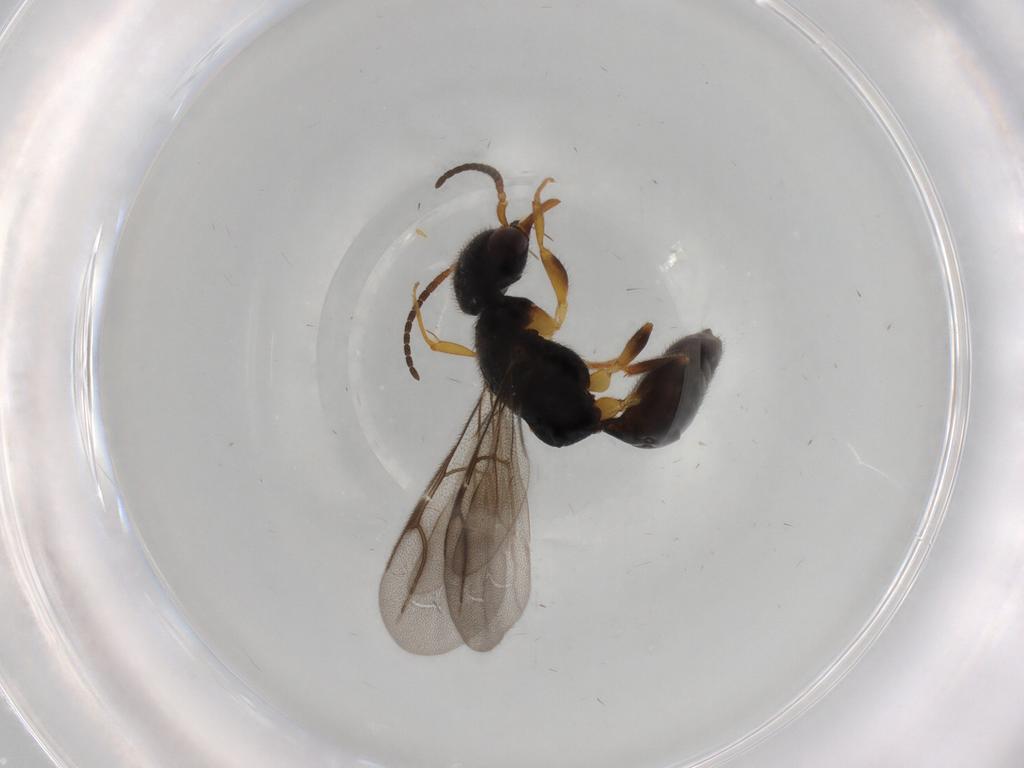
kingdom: Animalia
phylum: Arthropoda
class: Insecta
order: Hymenoptera
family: Bethylidae
